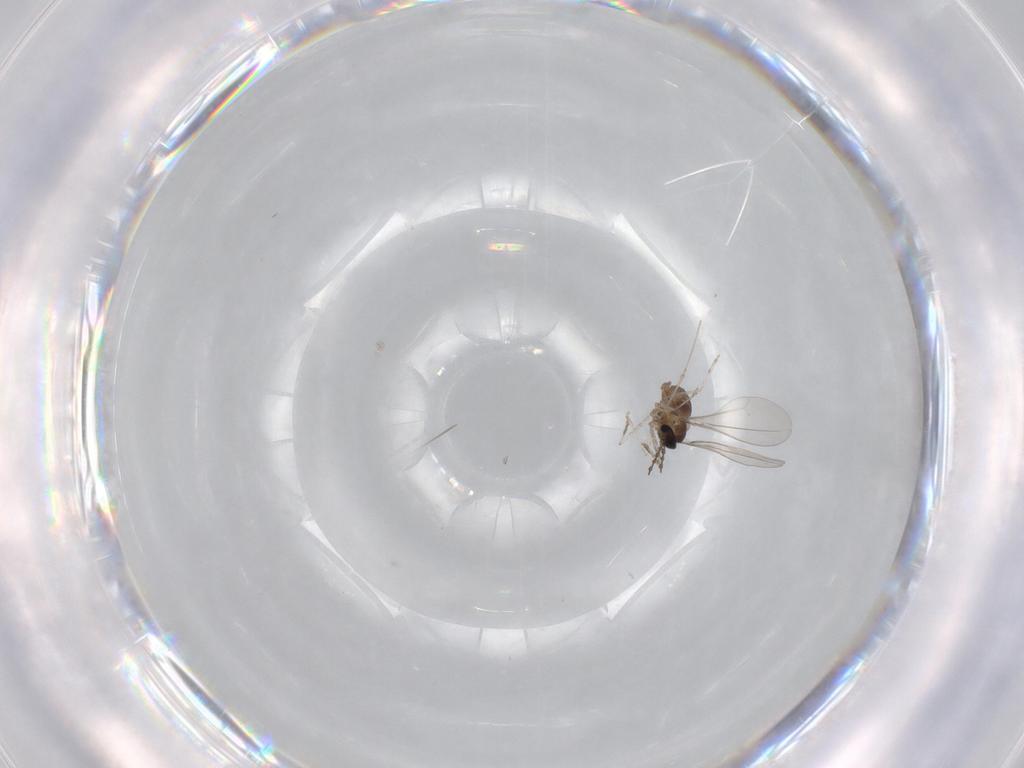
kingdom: Animalia
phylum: Arthropoda
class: Insecta
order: Diptera
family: Cecidomyiidae
